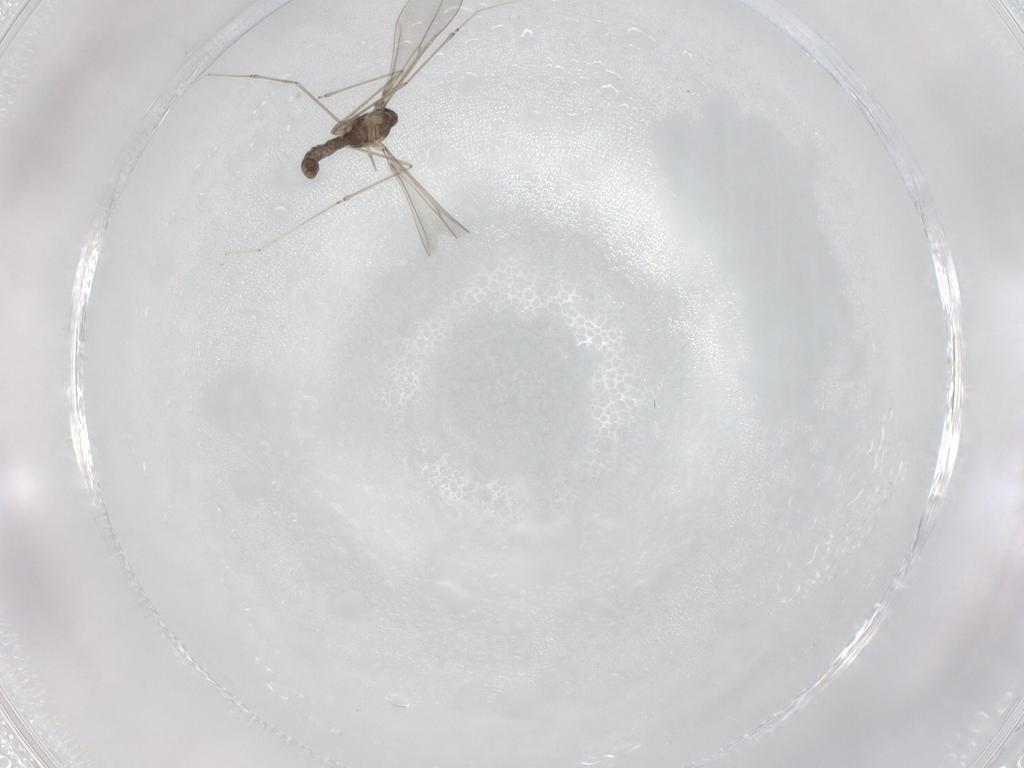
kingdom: Animalia
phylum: Arthropoda
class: Insecta
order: Diptera
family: Cecidomyiidae
